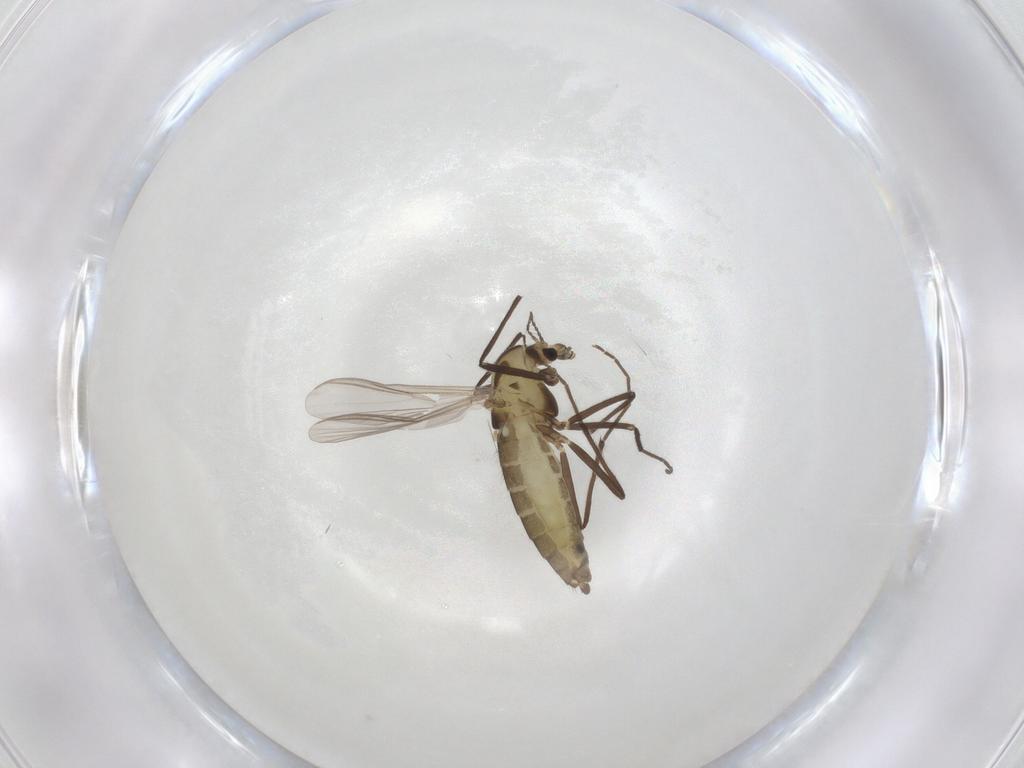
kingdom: Animalia
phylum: Arthropoda
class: Insecta
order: Diptera
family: Chironomidae
